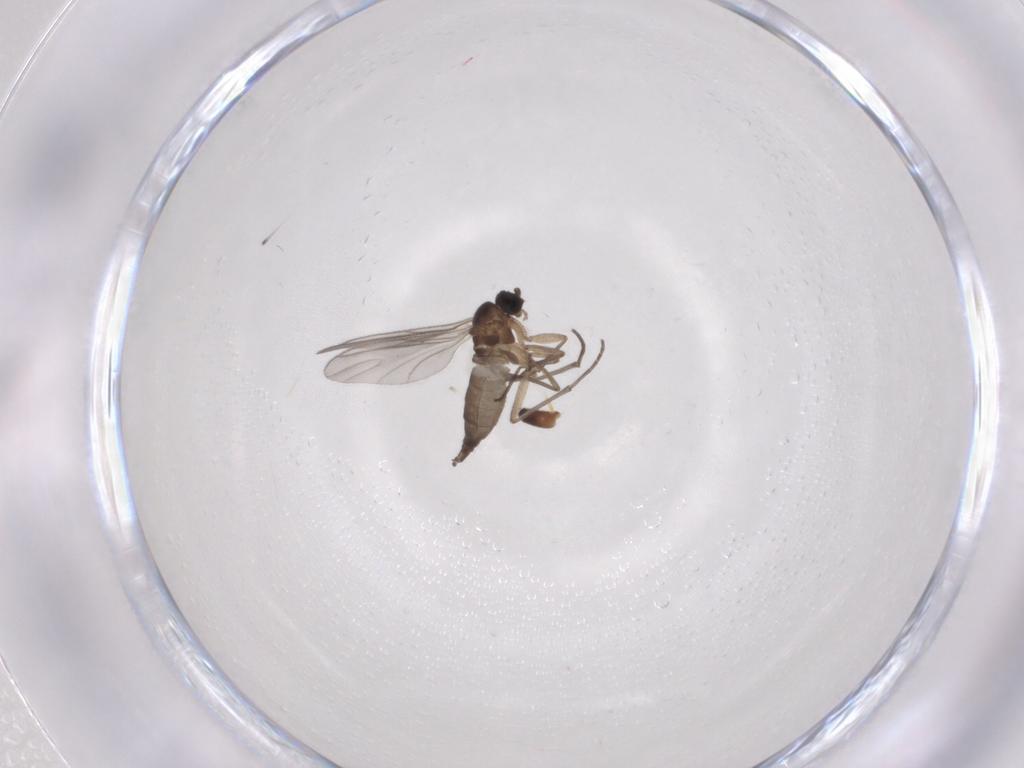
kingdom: Animalia
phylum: Arthropoda
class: Insecta
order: Diptera
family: Sciaridae
